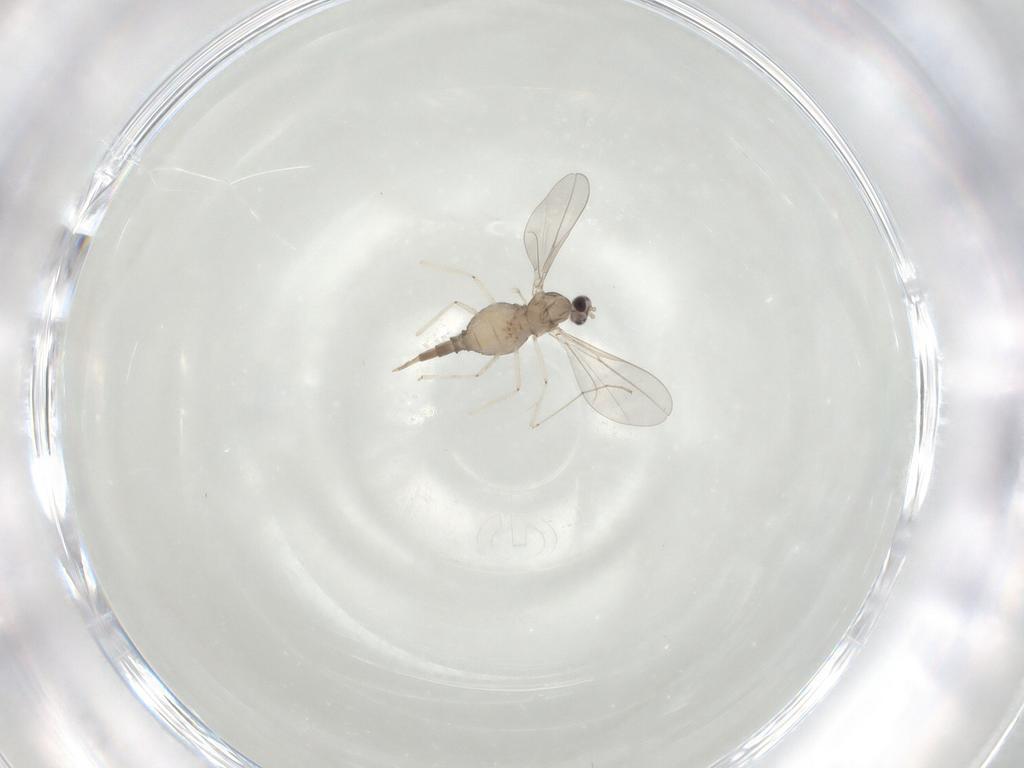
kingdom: Animalia
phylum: Arthropoda
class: Insecta
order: Diptera
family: Cecidomyiidae
